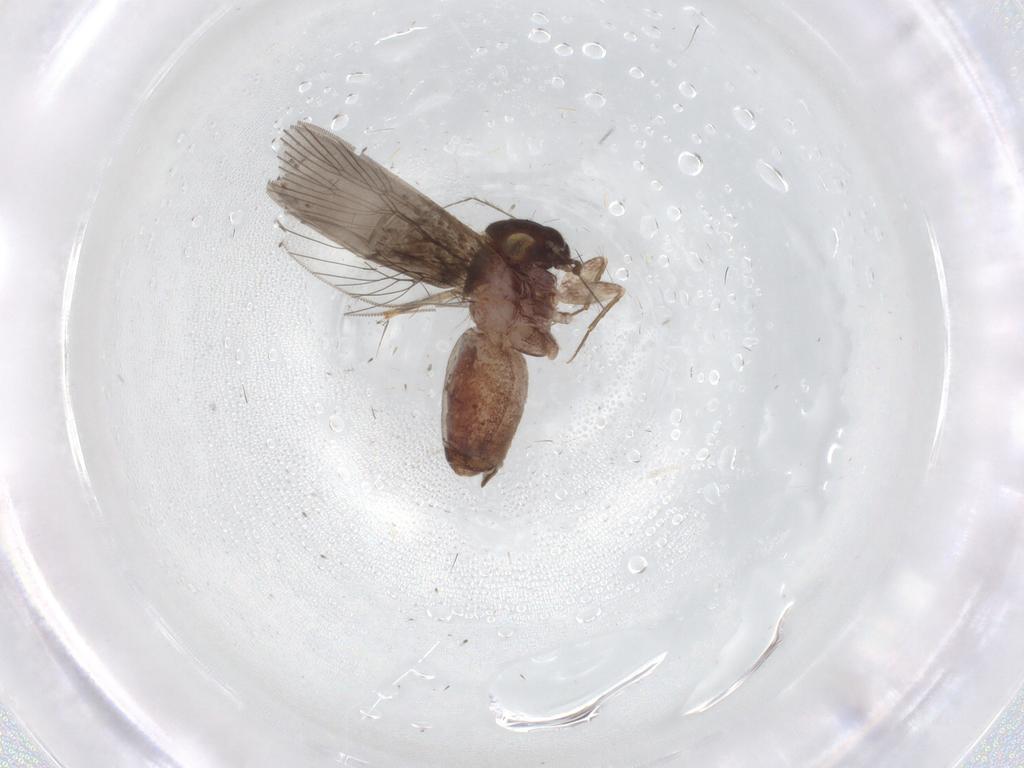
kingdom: Animalia
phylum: Arthropoda
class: Insecta
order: Psocodea
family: Lepidopsocidae
